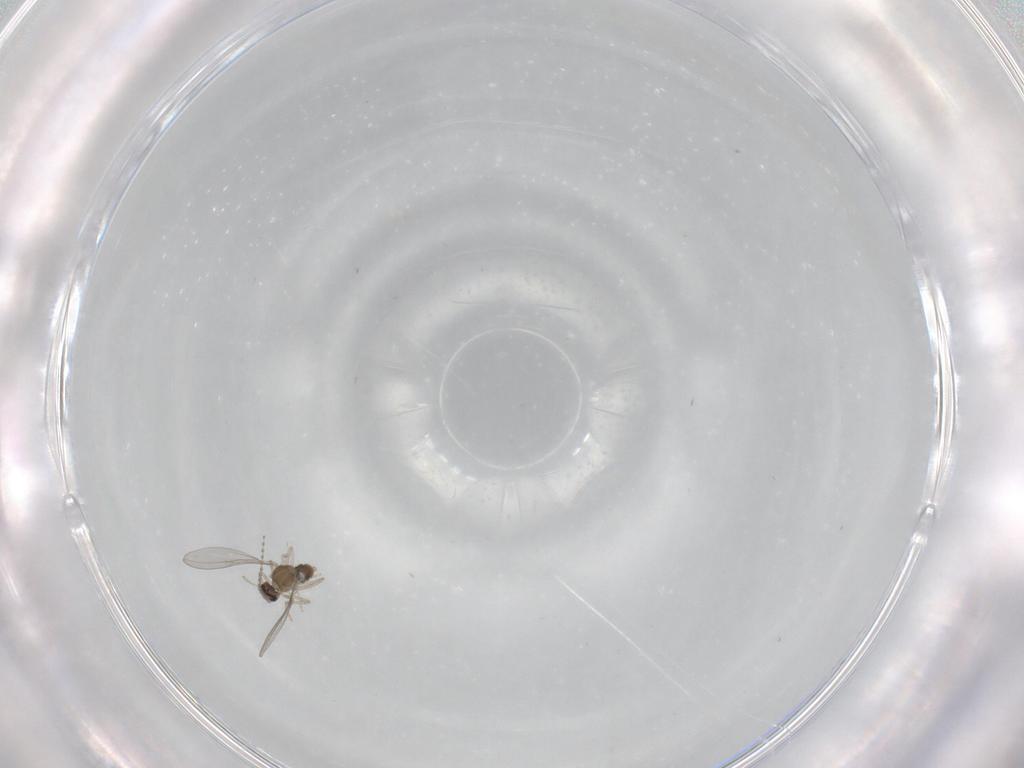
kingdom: Animalia
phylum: Arthropoda
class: Insecta
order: Diptera
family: Cecidomyiidae
